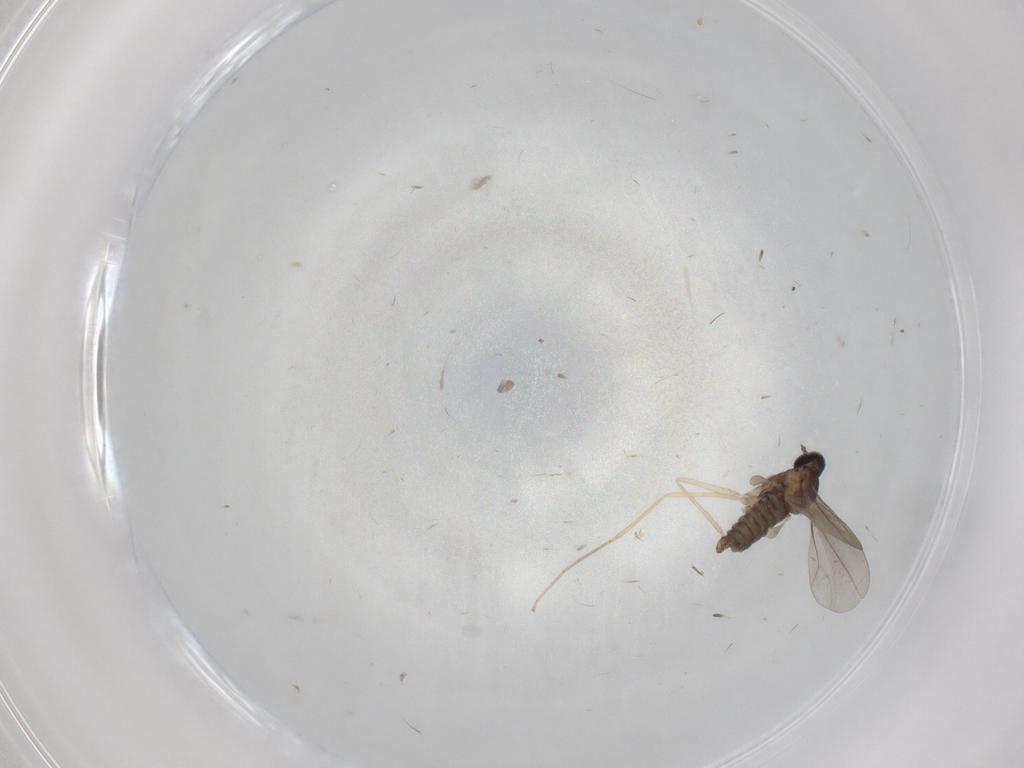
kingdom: Animalia
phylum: Arthropoda
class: Insecta
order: Diptera
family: Cecidomyiidae
